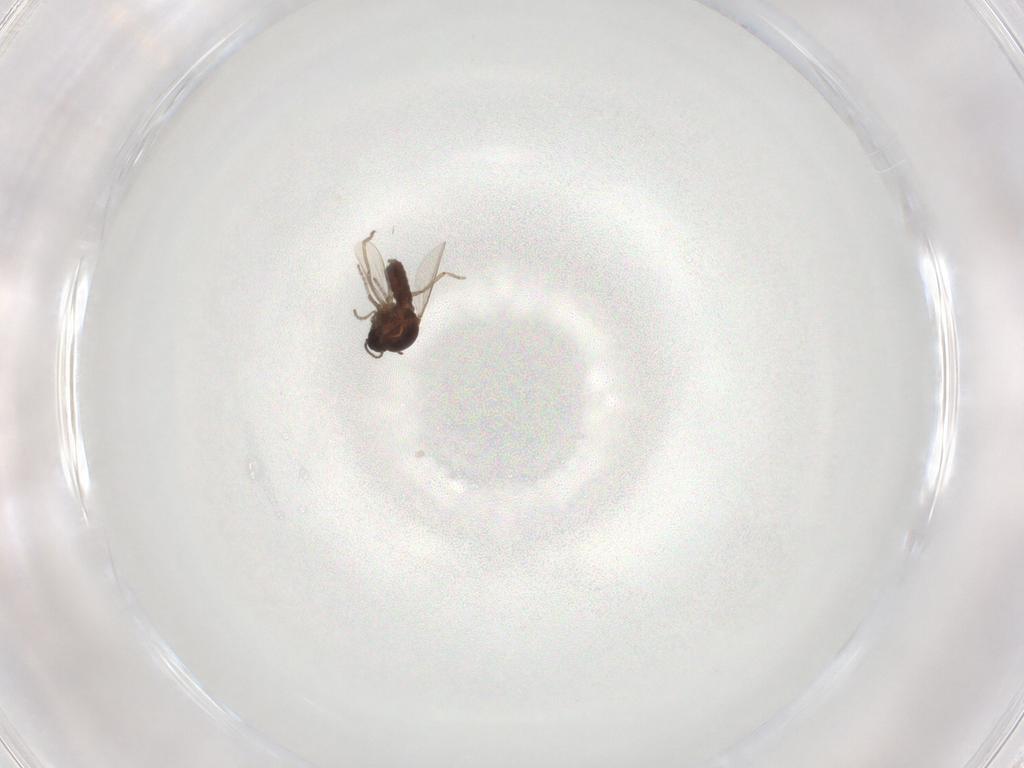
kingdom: Animalia
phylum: Arthropoda
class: Insecta
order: Diptera
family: Ceratopogonidae
